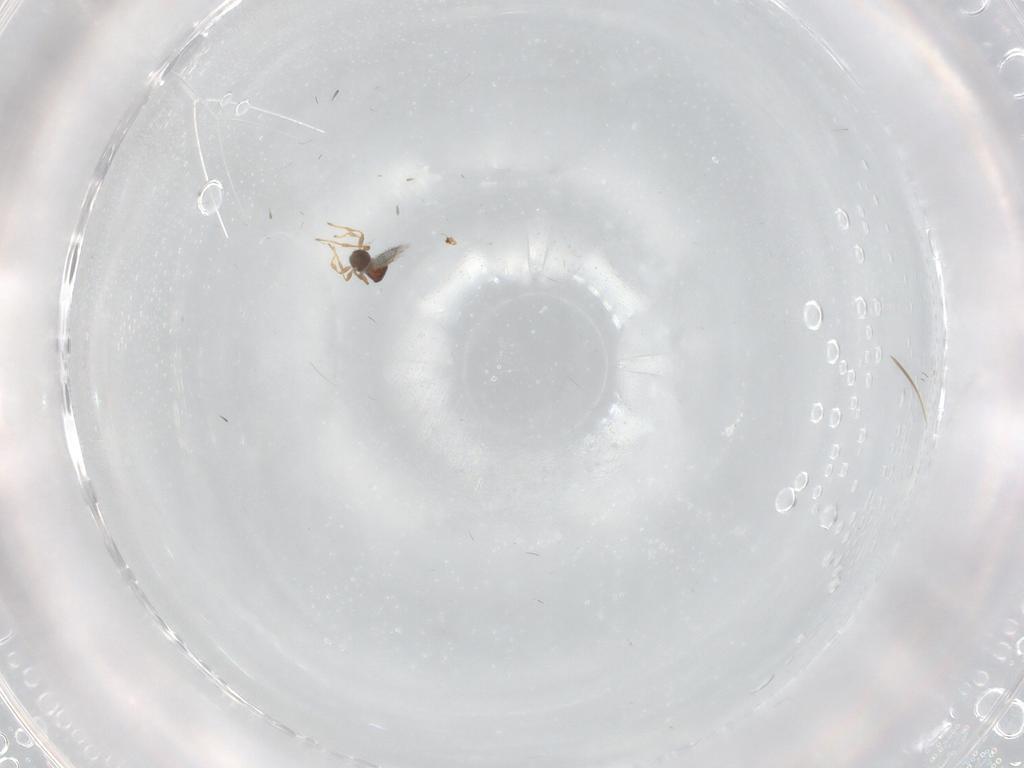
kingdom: Animalia
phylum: Arthropoda
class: Insecta
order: Hymenoptera
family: Diapriidae
